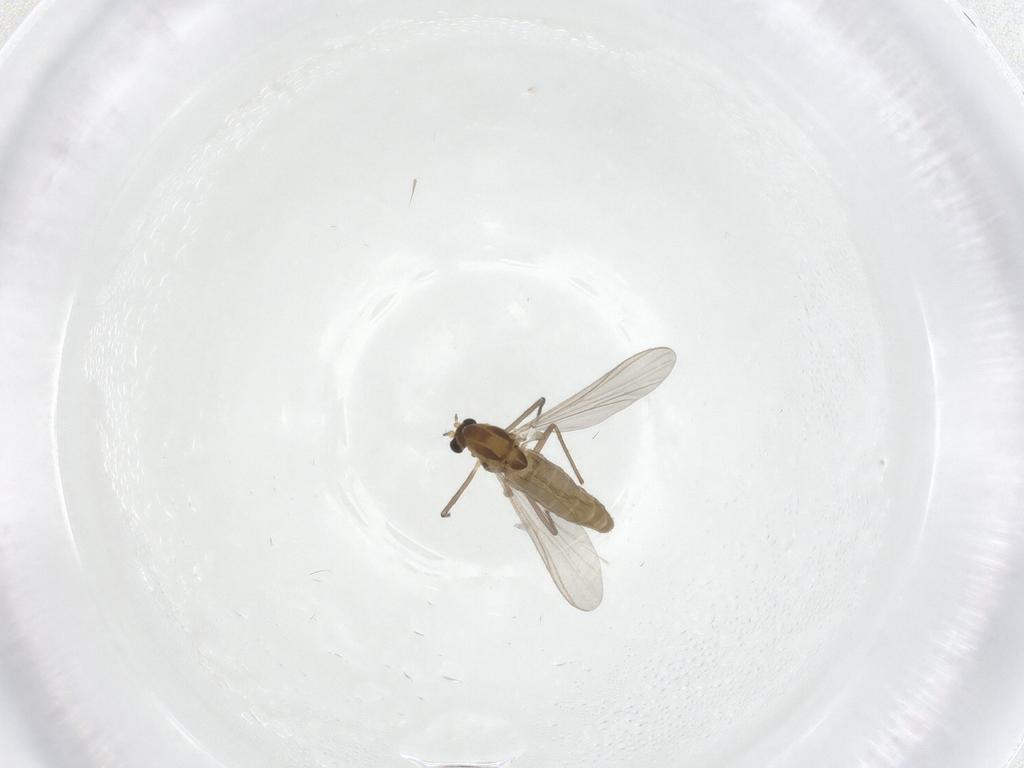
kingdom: Animalia
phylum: Arthropoda
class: Insecta
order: Diptera
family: Chironomidae
